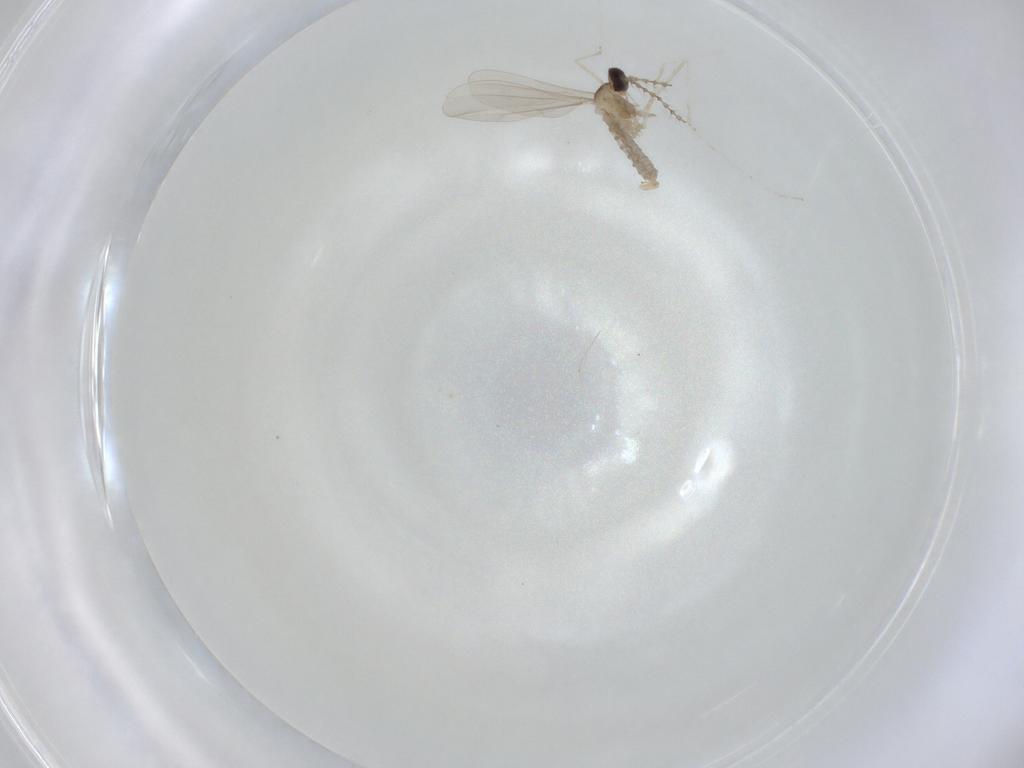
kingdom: Animalia
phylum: Arthropoda
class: Insecta
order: Diptera
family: Cecidomyiidae
